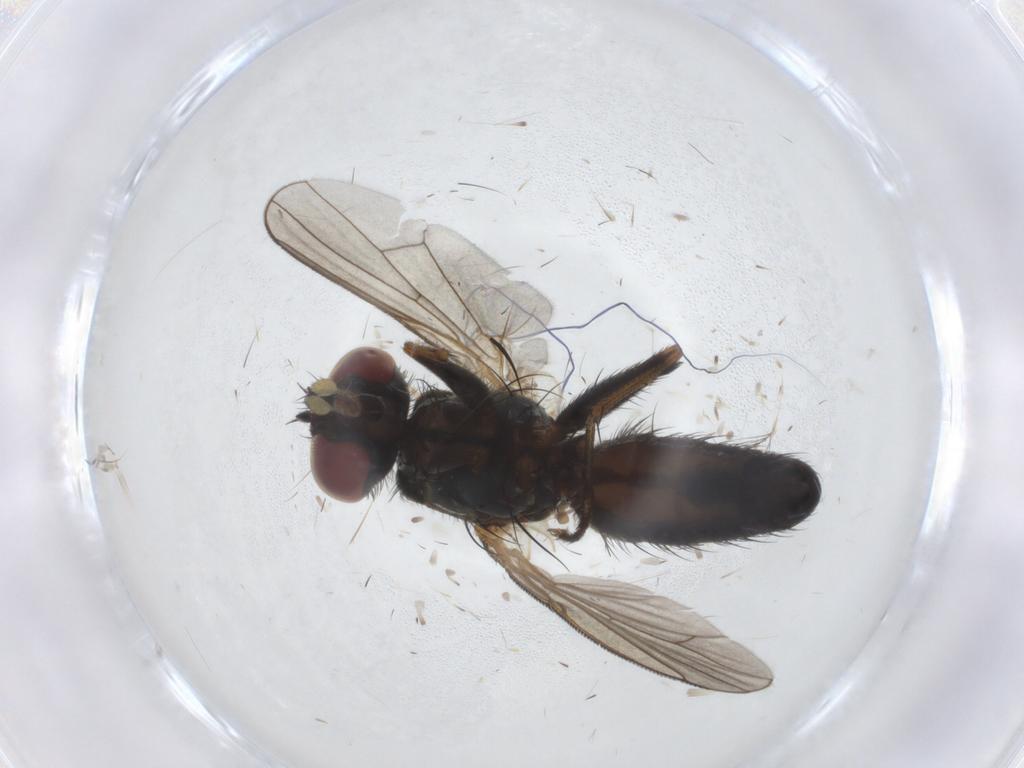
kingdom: Animalia
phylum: Arthropoda
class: Insecta
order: Diptera
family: Muscidae
